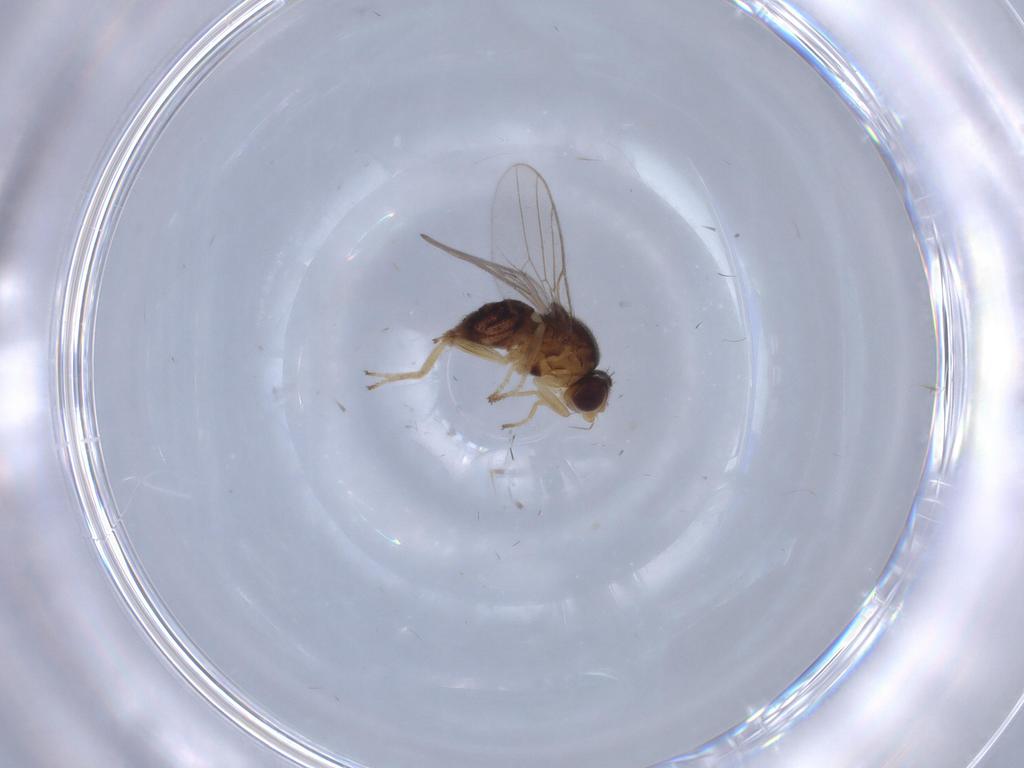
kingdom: Animalia
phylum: Arthropoda
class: Insecta
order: Diptera
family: Chloropidae
